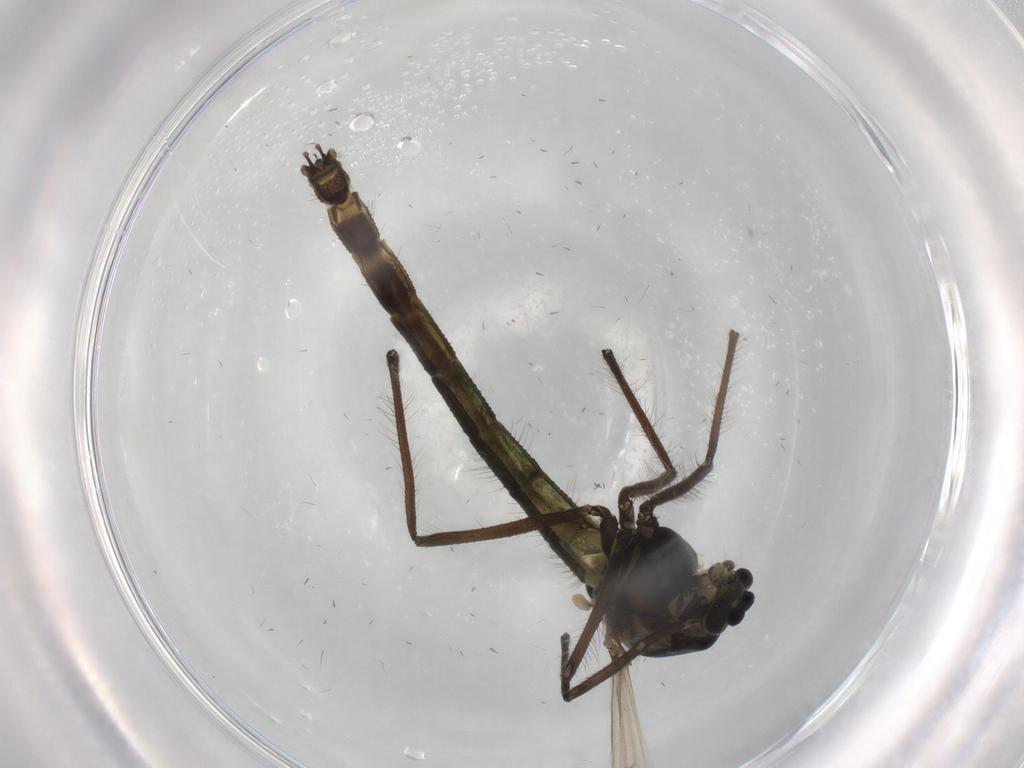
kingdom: Animalia
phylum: Arthropoda
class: Insecta
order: Diptera
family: Chironomidae
